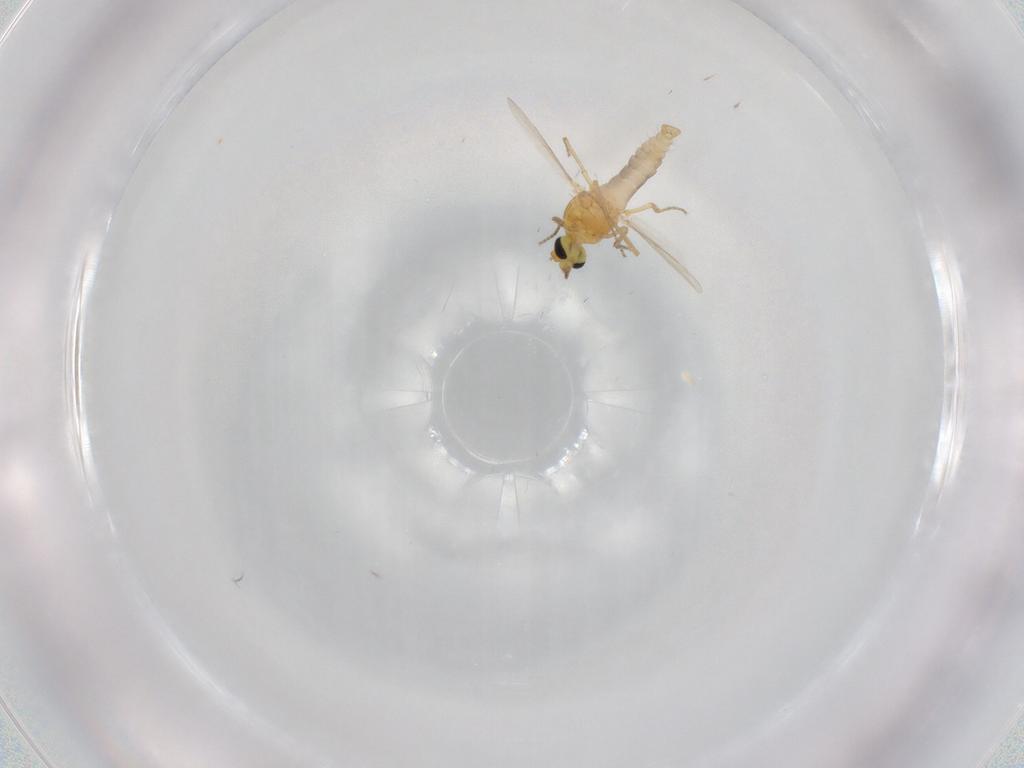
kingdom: Animalia
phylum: Arthropoda
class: Insecta
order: Diptera
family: Ceratopogonidae
